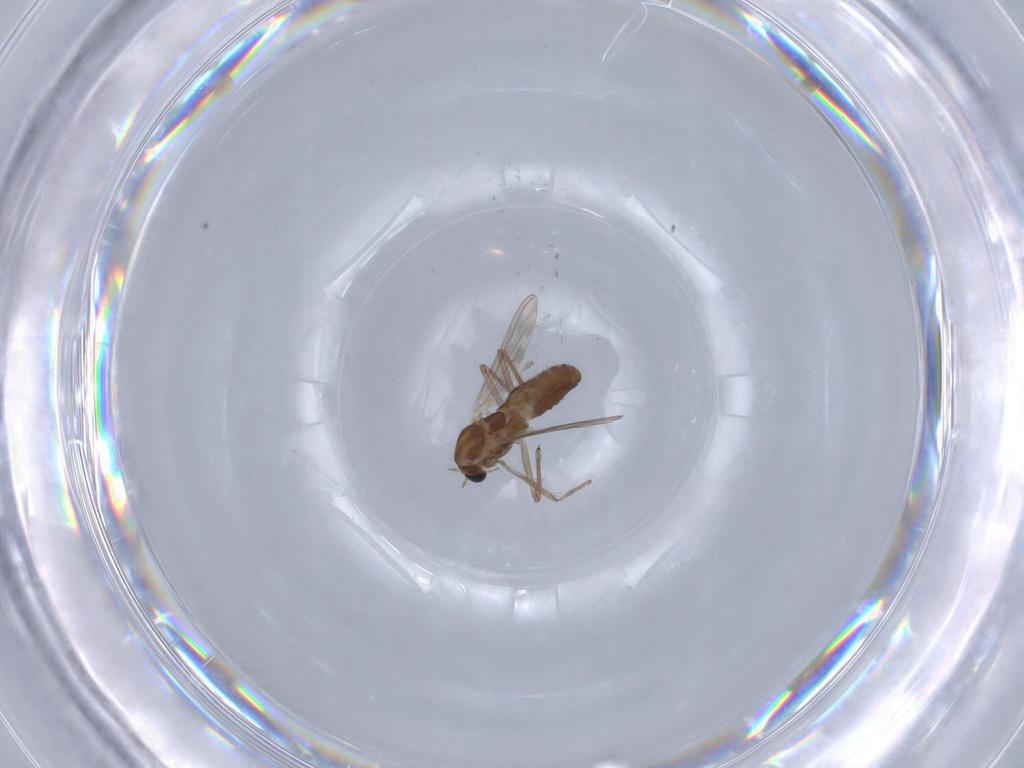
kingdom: Animalia
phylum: Arthropoda
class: Insecta
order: Diptera
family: Chironomidae
